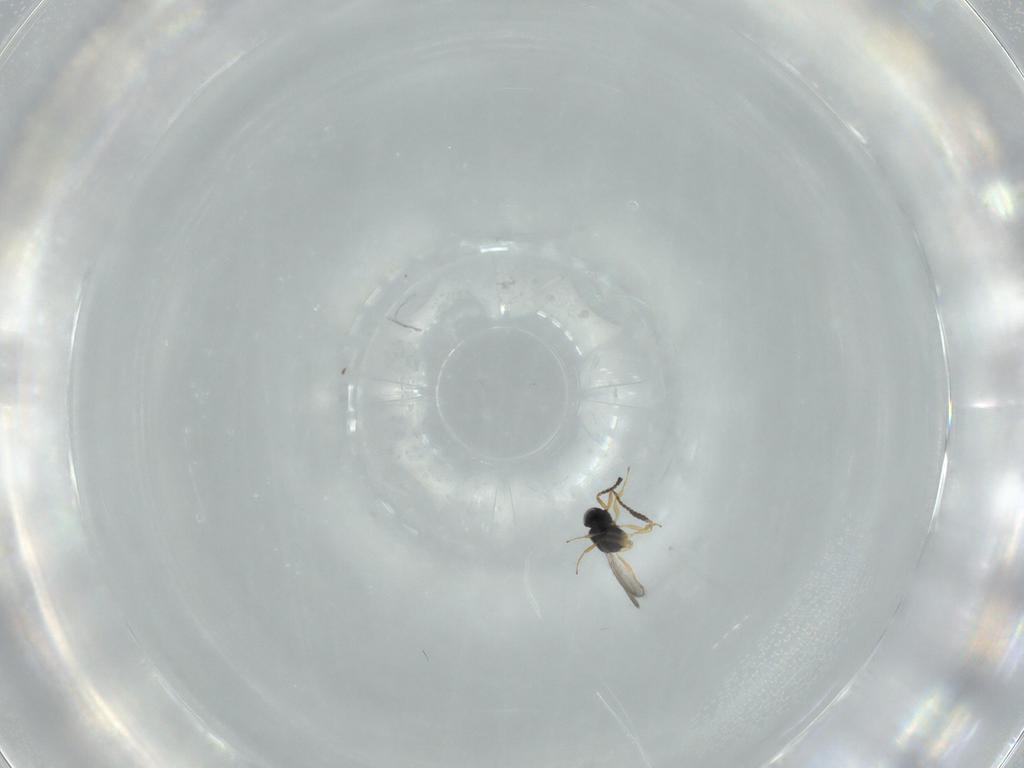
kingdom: Animalia
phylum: Arthropoda
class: Insecta
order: Hymenoptera
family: Scelionidae
